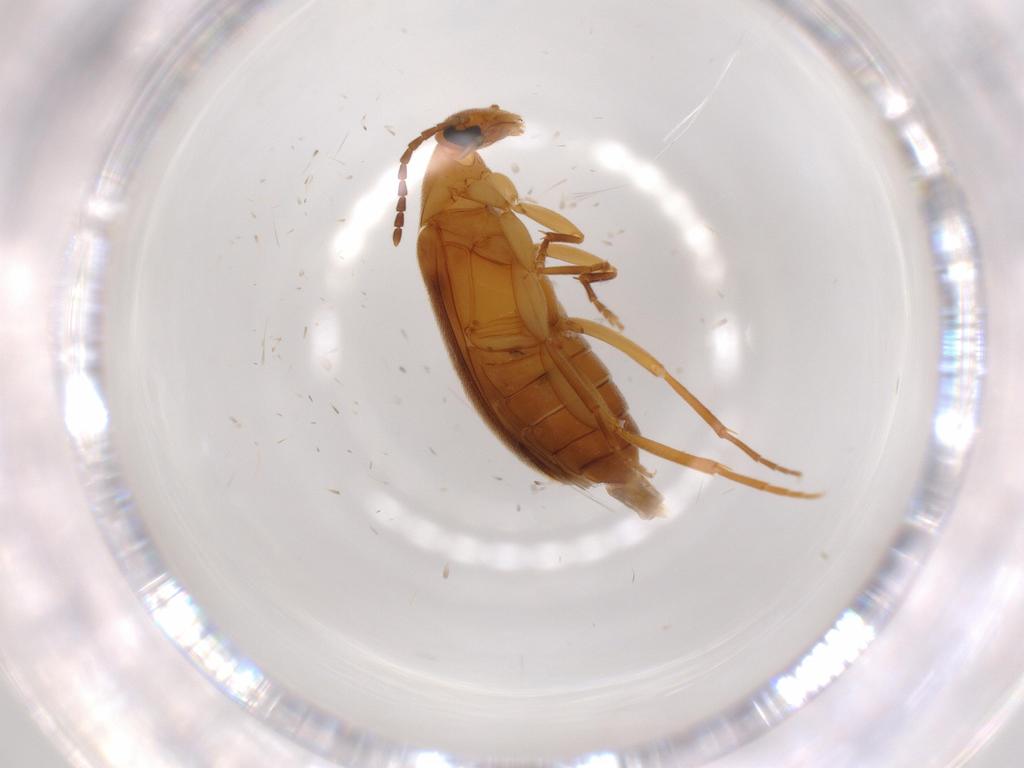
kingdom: Animalia
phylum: Arthropoda
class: Insecta
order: Coleoptera
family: Scraptiidae
